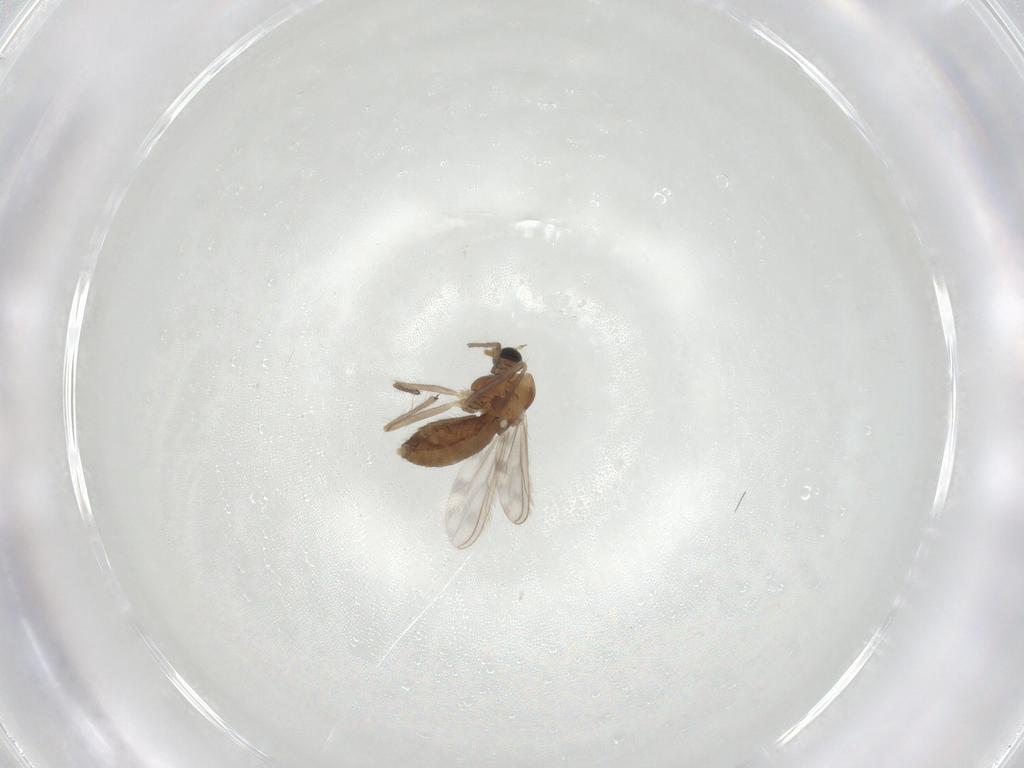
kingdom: Animalia
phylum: Arthropoda
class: Insecta
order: Diptera
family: Chironomidae
